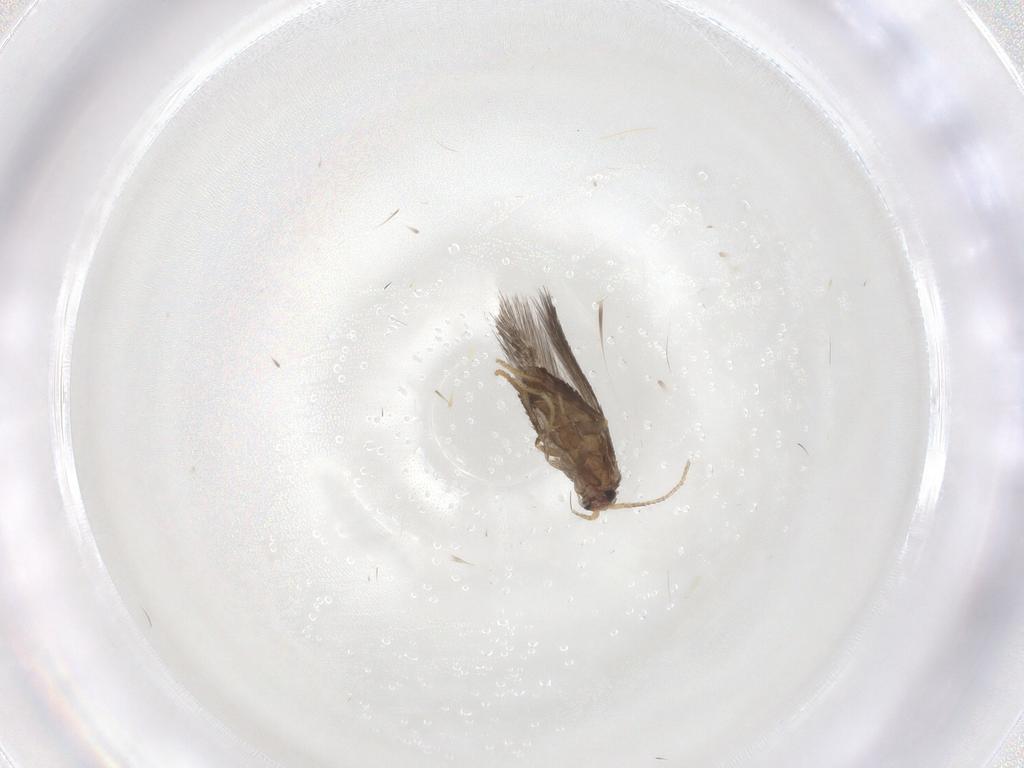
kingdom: Animalia
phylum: Arthropoda
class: Insecta
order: Lepidoptera
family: Nepticulidae
